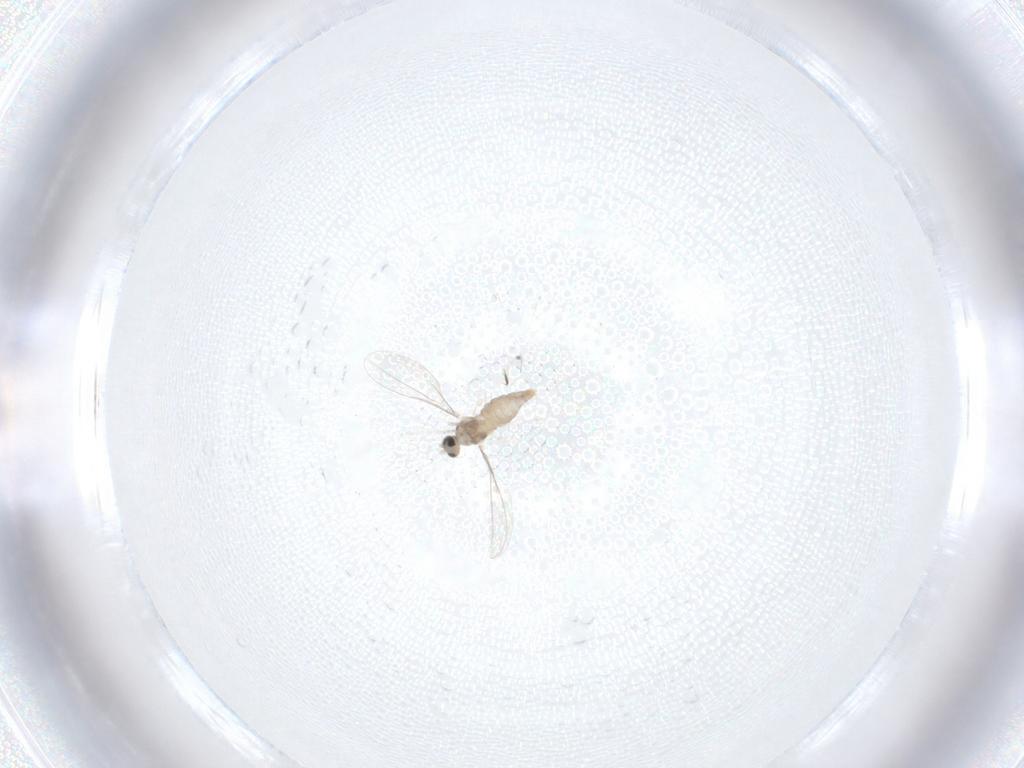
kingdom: Animalia
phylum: Arthropoda
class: Insecta
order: Diptera
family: Cecidomyiidae
